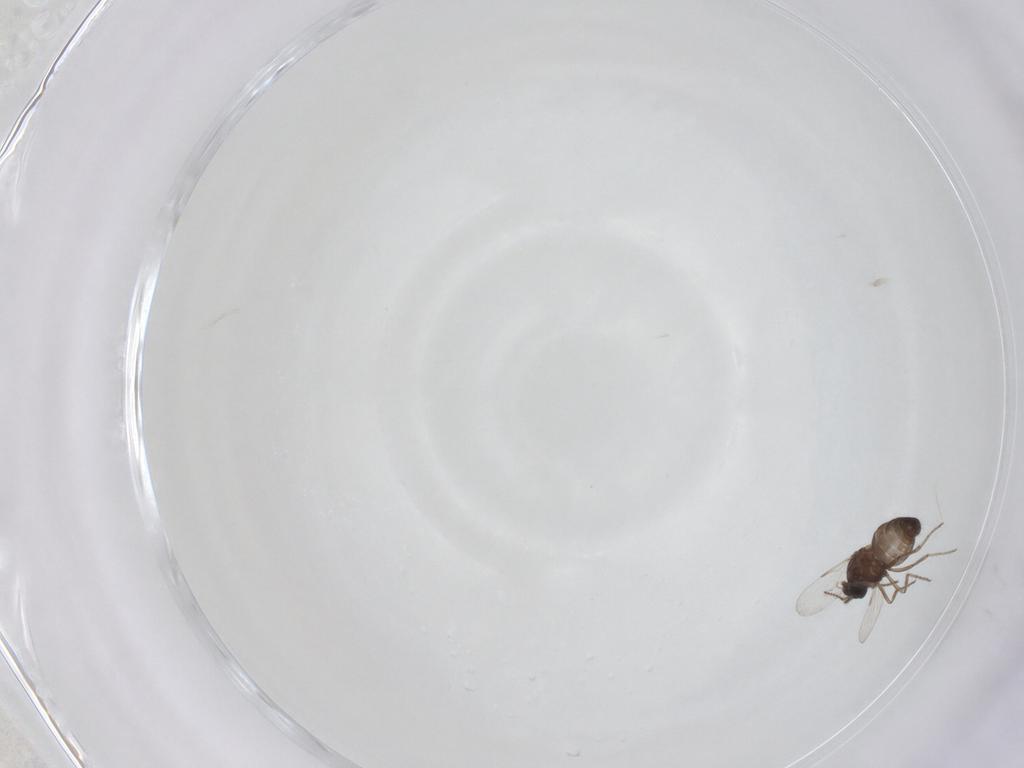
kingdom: Animalia
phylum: Arthropoda
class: Insecta
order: Diptera
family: Ceratopogonidae
